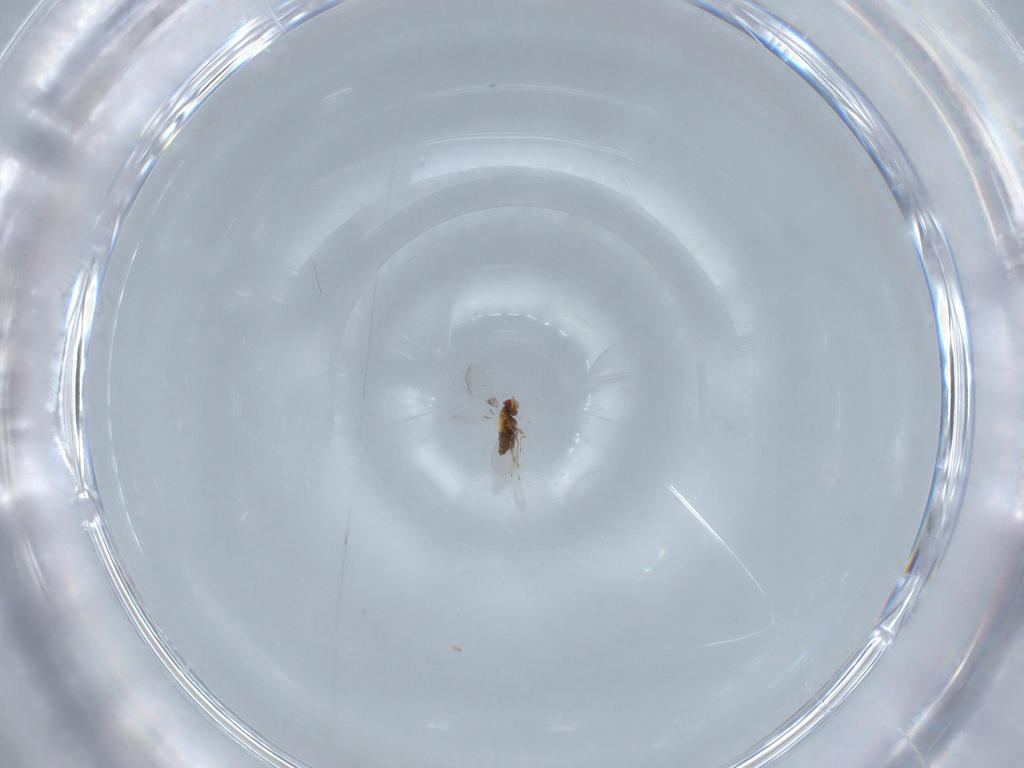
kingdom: Animalia
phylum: Arthropoda
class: Insecta
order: Hymenoptera
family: Trichogrammatidae
